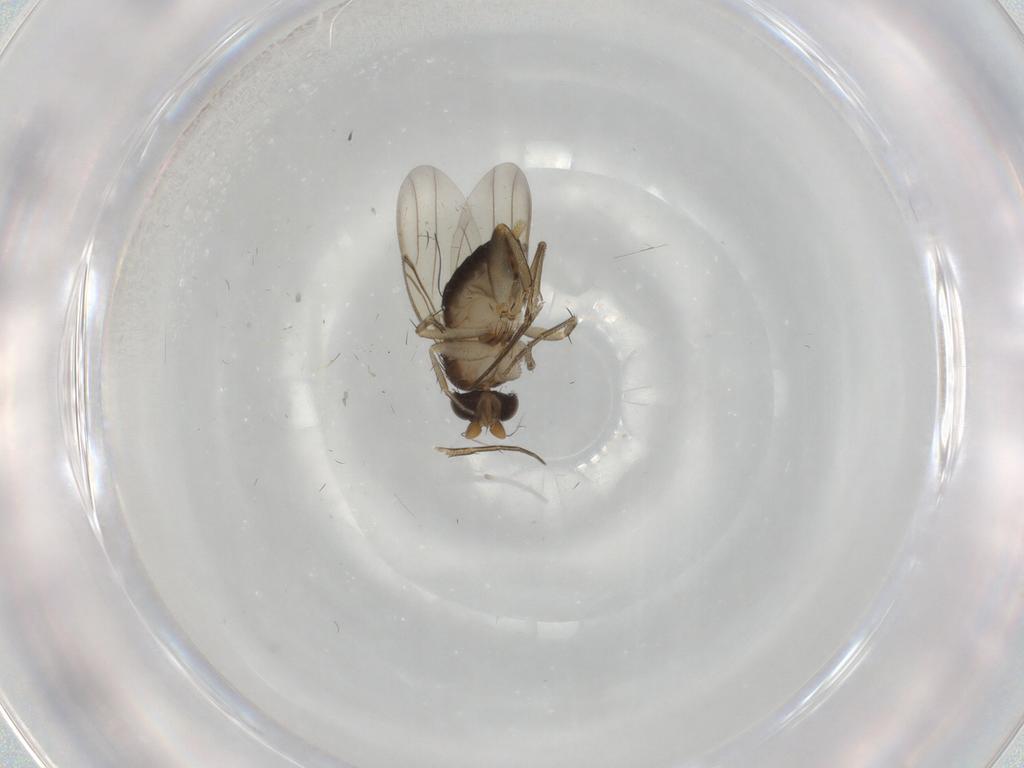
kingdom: Animalia
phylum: Arthropoda
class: Insecta
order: Diptera
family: Phoridae
